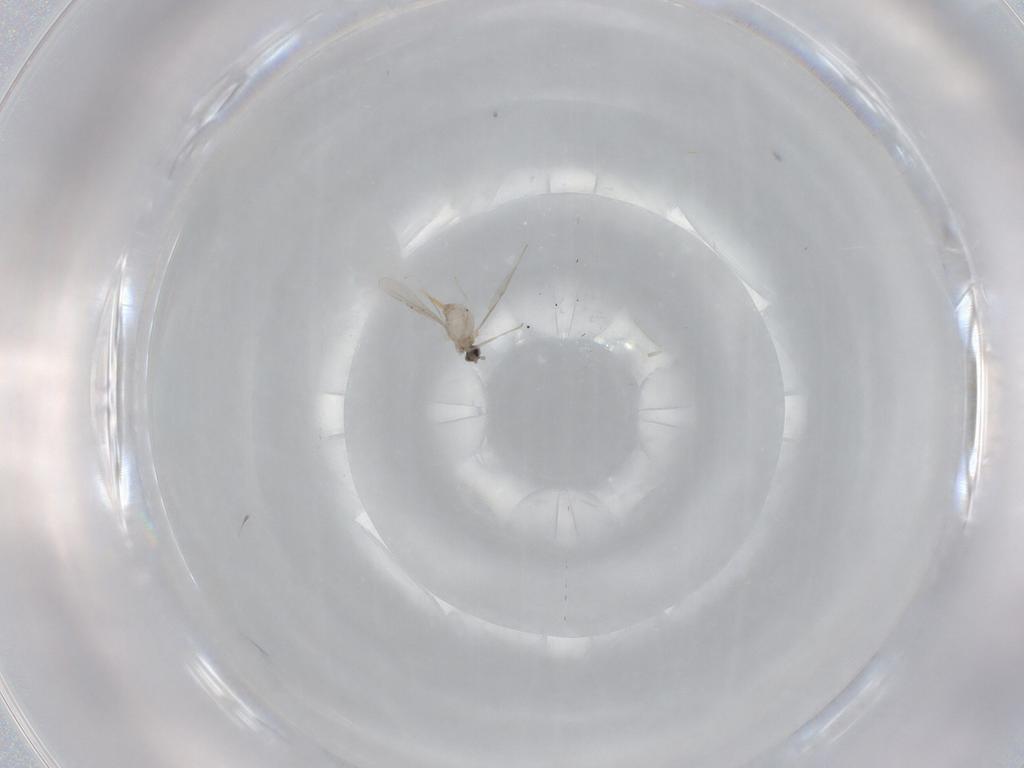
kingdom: Animalia
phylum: Arthropoda
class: Insecta
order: Diptera
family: Cecidomyiidae
